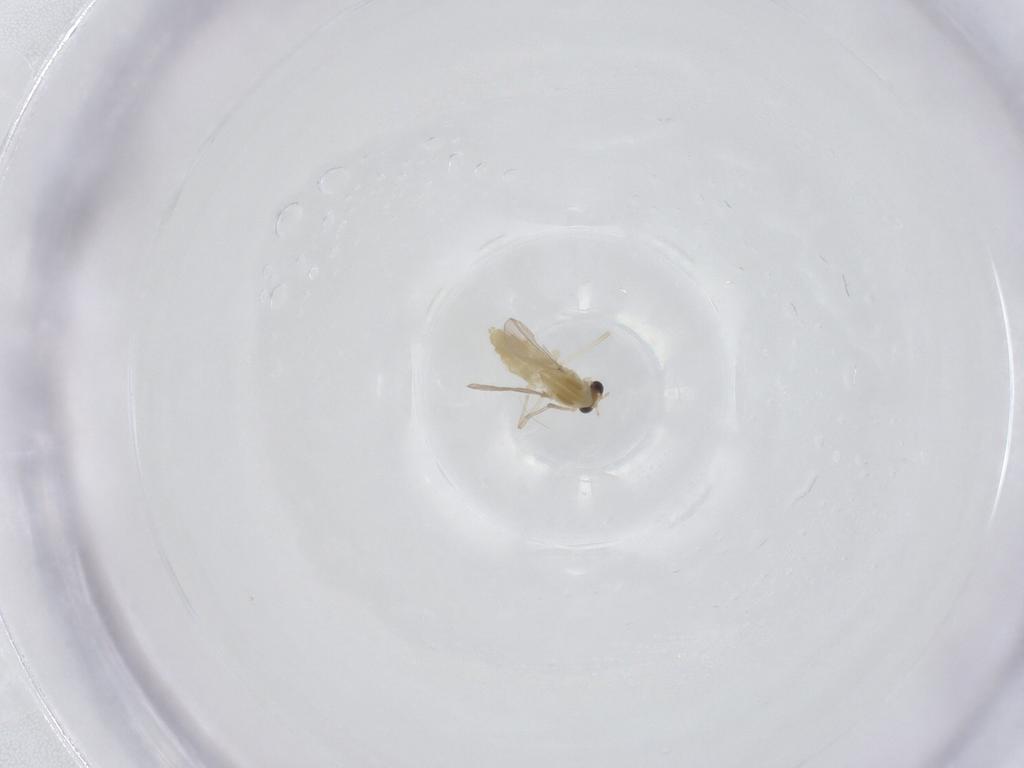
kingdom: Animalia
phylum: Arthropoda
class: Insecta
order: Diptera
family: Chironomidae
